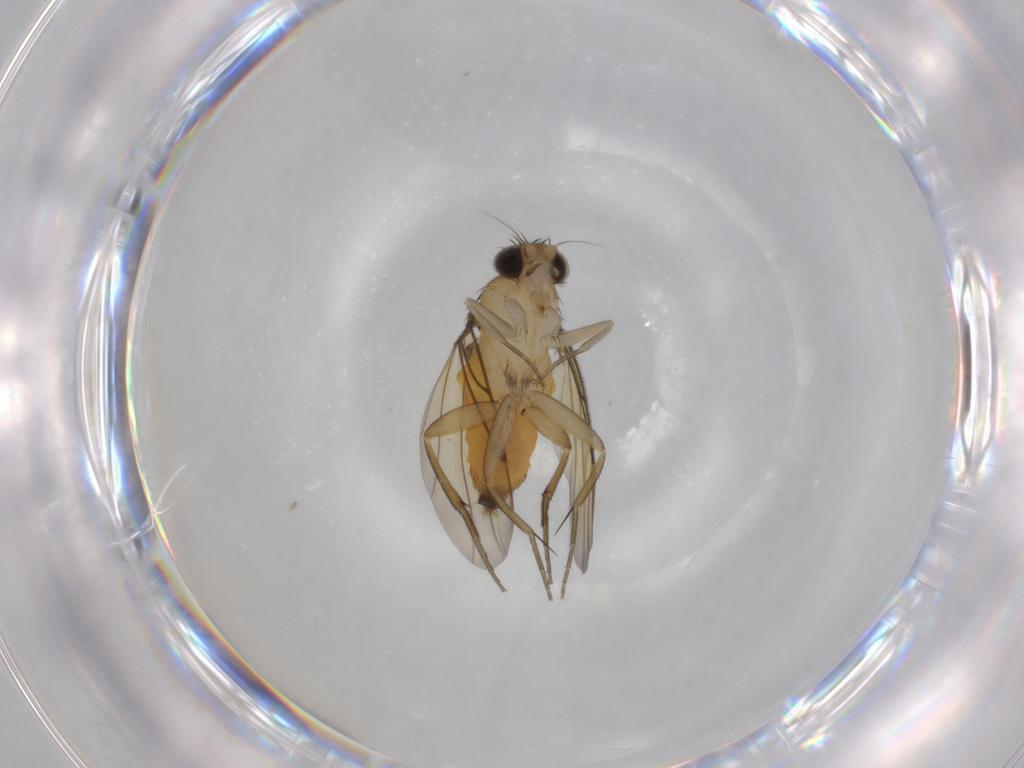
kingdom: Animalia
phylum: Arthropoda
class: Insecta
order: Diptera
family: Phoridae
